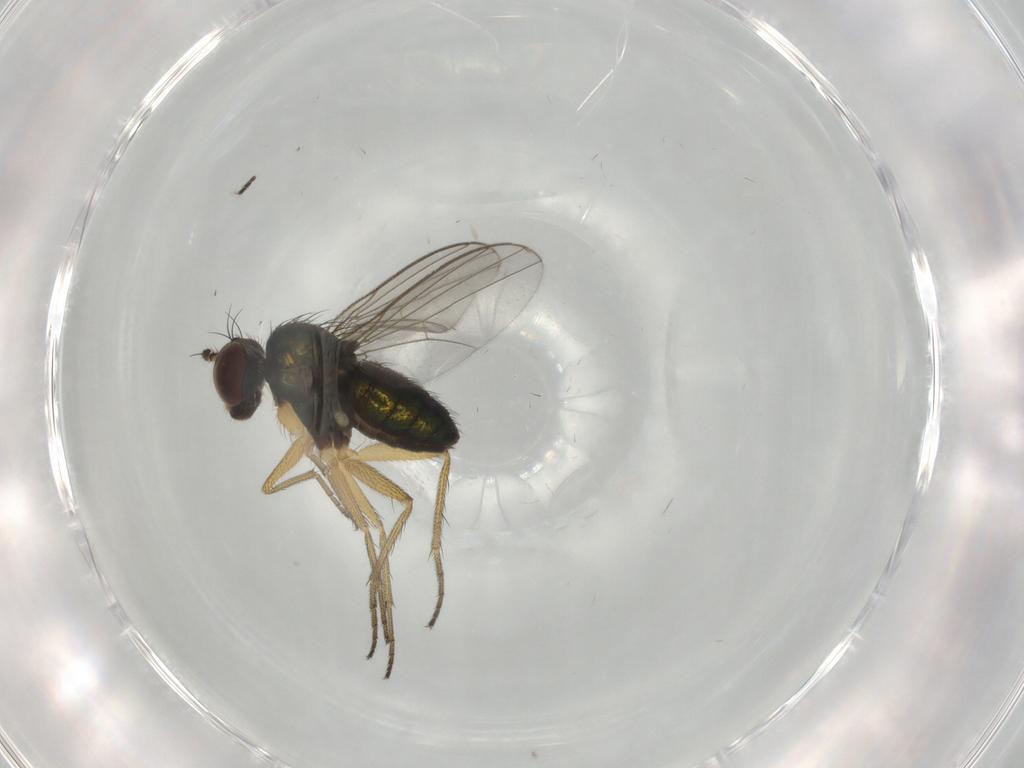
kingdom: Animalia
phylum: Arthropoda
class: Insecta
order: Diptera
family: Dolichopodidae
